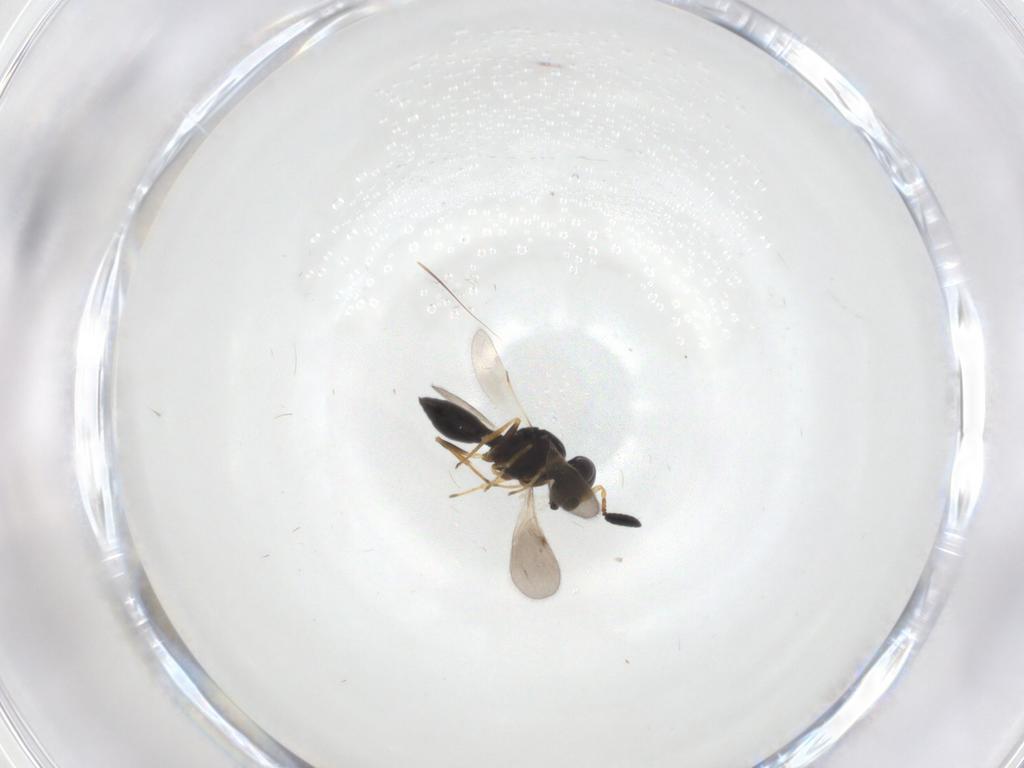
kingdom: Animalia
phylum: Arthropoda
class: Insecta
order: Hymenoptera
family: Scelionidae
